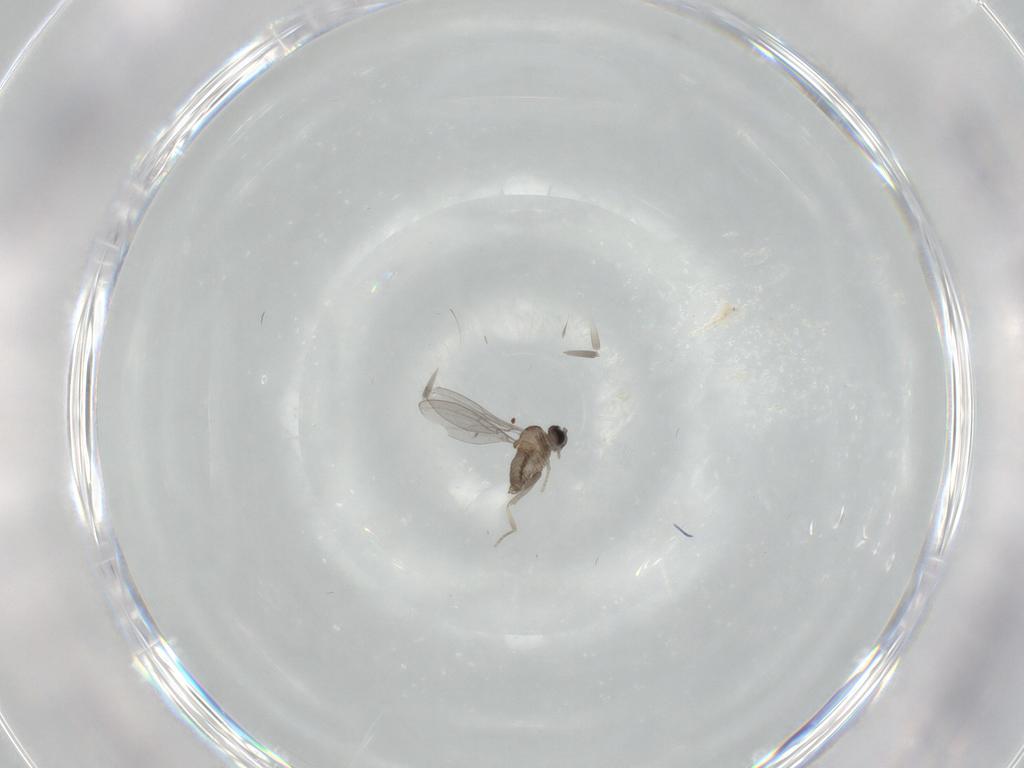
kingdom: Animalia
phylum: Arthropoda
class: Insecta
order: Diptera
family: Cecidomyiidae
